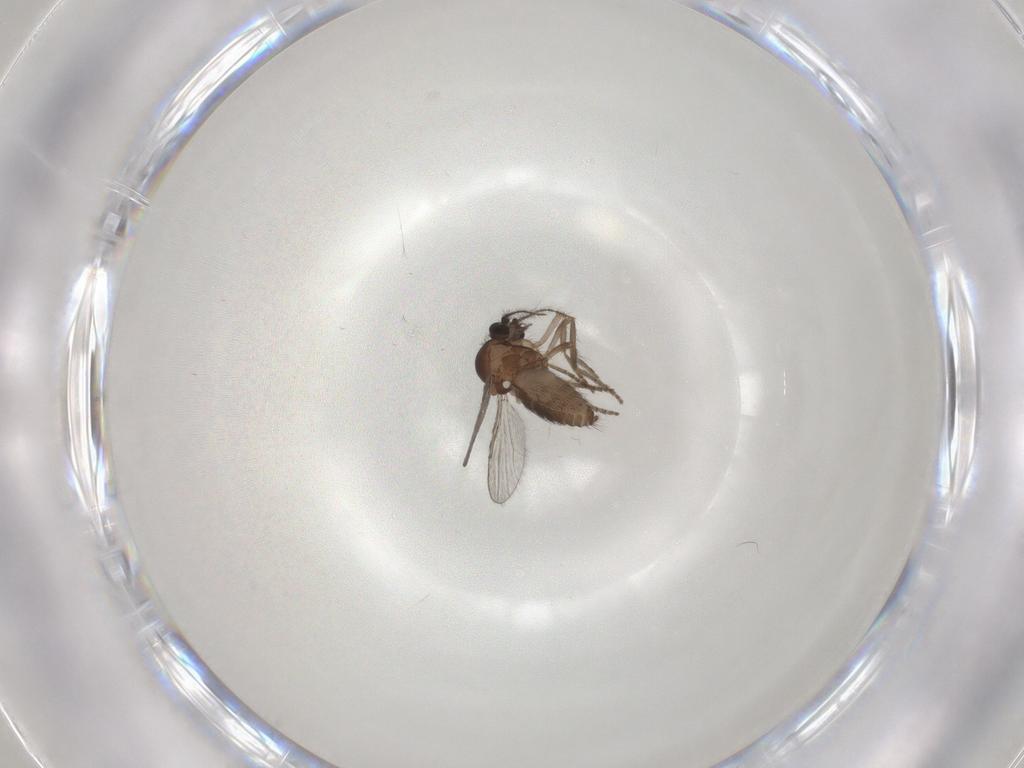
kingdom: Animalia
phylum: Arthropoda
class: Insecta
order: Diptera
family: Ceratopogonidae
